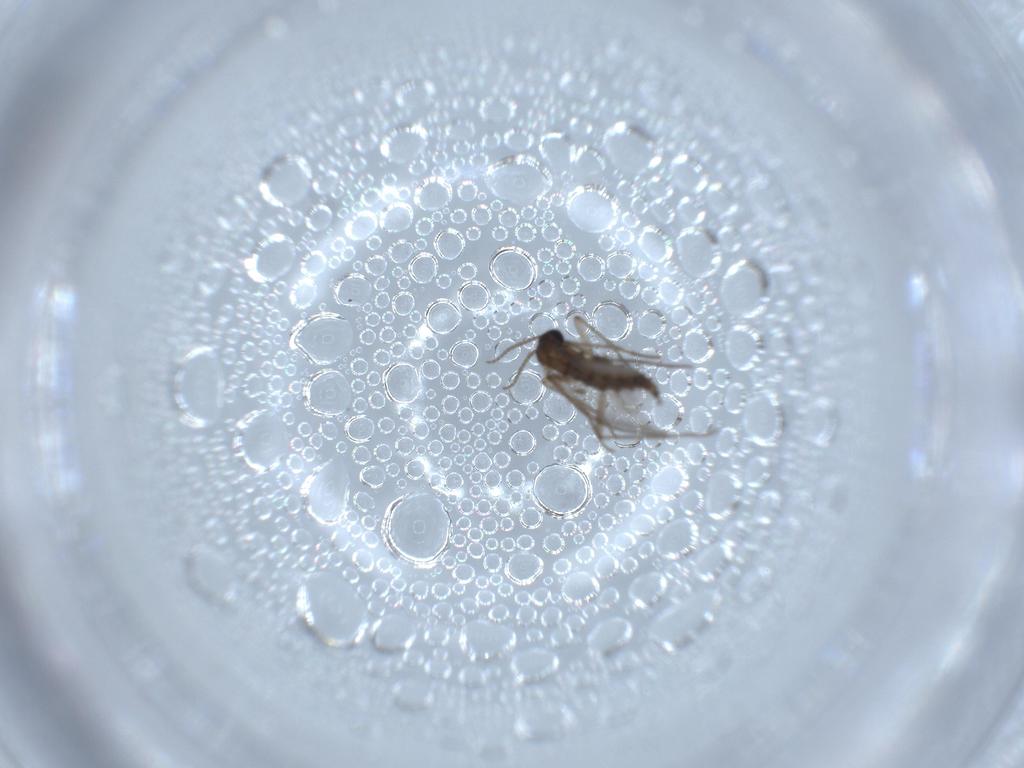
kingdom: Animalia
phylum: Arthropoda
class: Insecta
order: Diptera
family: Sciaridae
